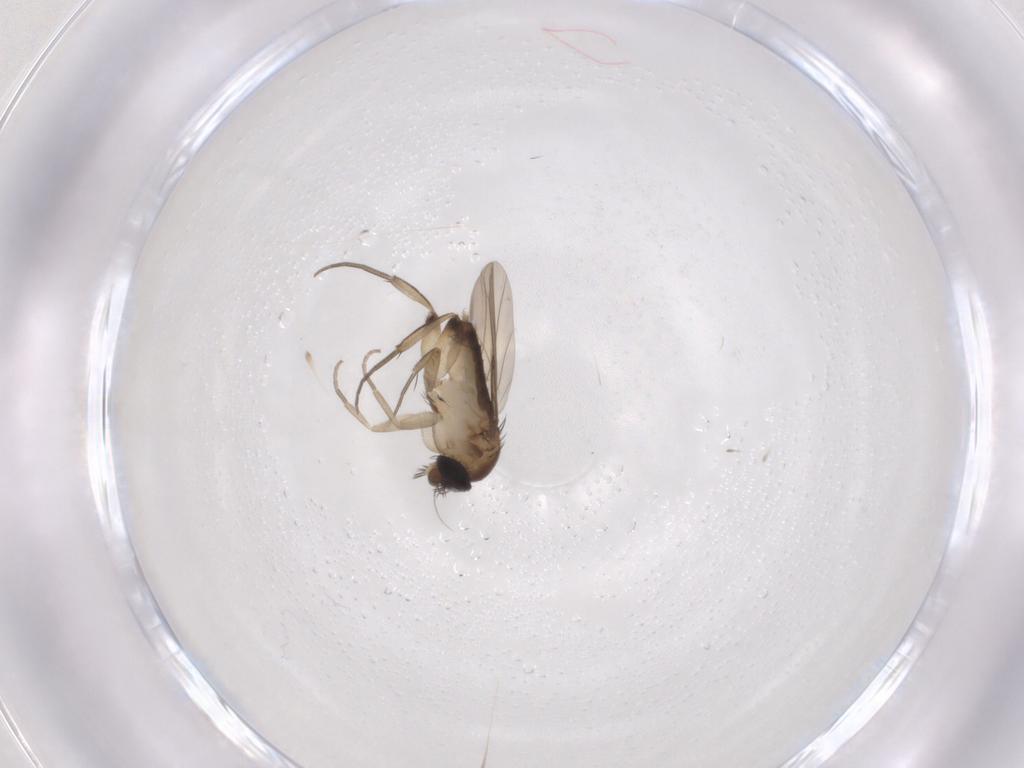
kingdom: Animalia
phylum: Arthropoda
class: Insecta
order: Diptera
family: Phoridae
